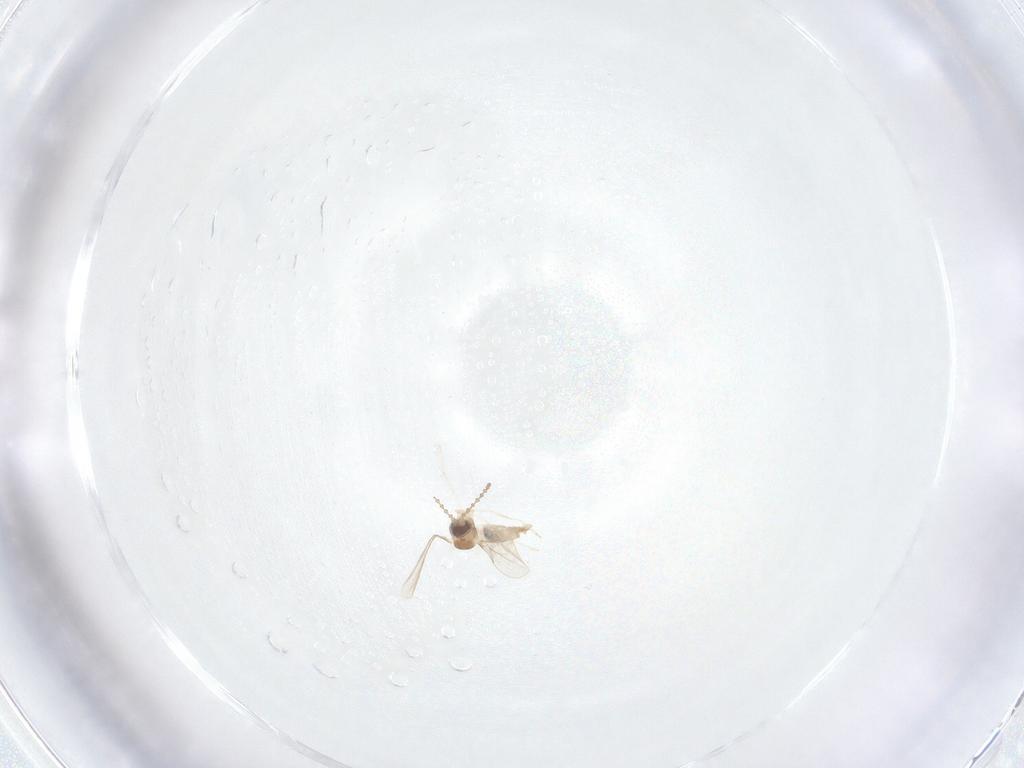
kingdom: Animalia
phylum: Arthropoda
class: Insecta
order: Diptera
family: Cecidomyiidae
